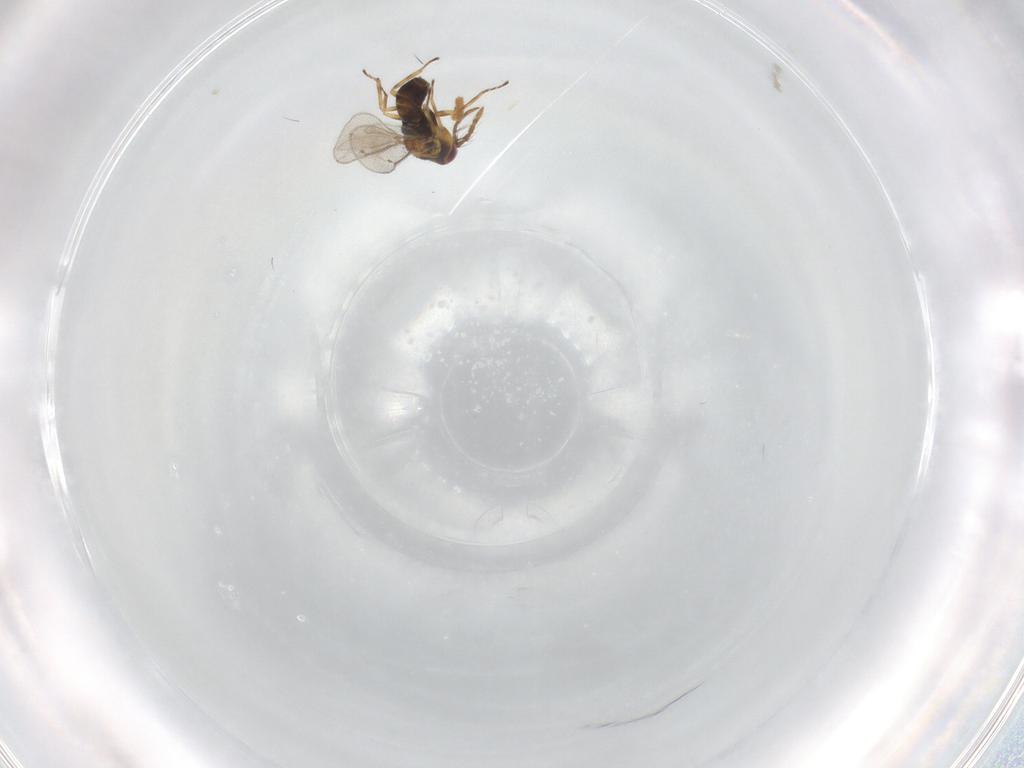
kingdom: Animalia
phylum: Arthropoda
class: Insecta
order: Hymenoptera
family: Eulophidae
